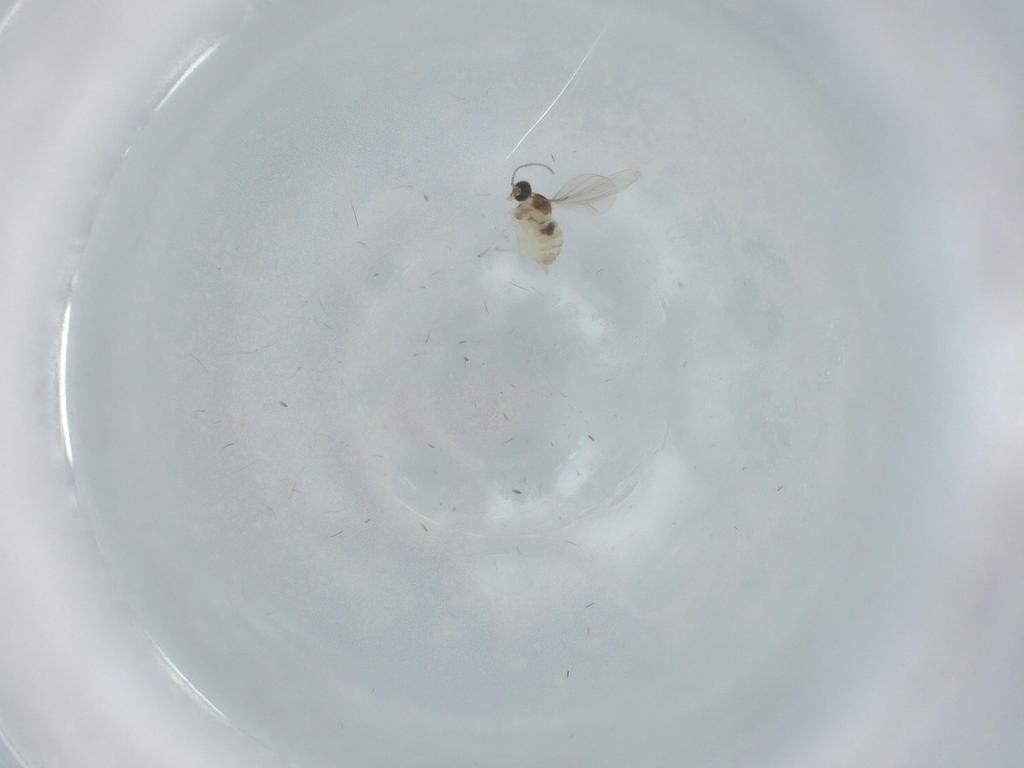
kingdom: Animalia
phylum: Arthropoda
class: Insecta
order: Diptera
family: Phoridae
